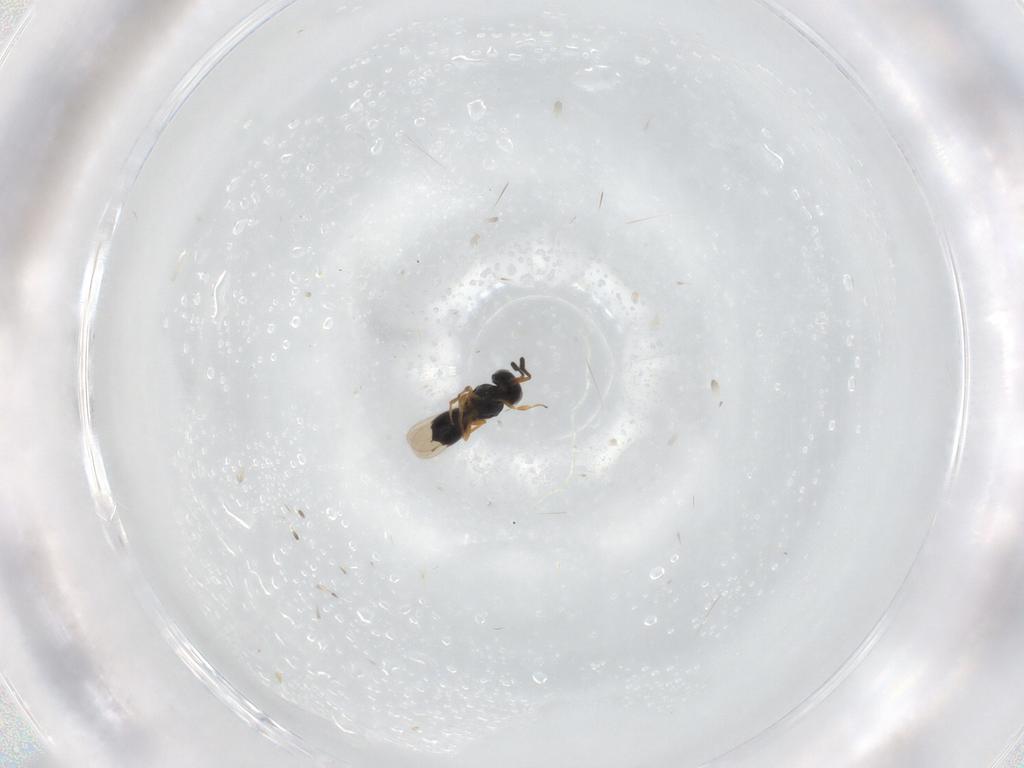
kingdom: Animalia
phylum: Arthropoda
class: Insecta
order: Hymenoptera
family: Scelionidae
